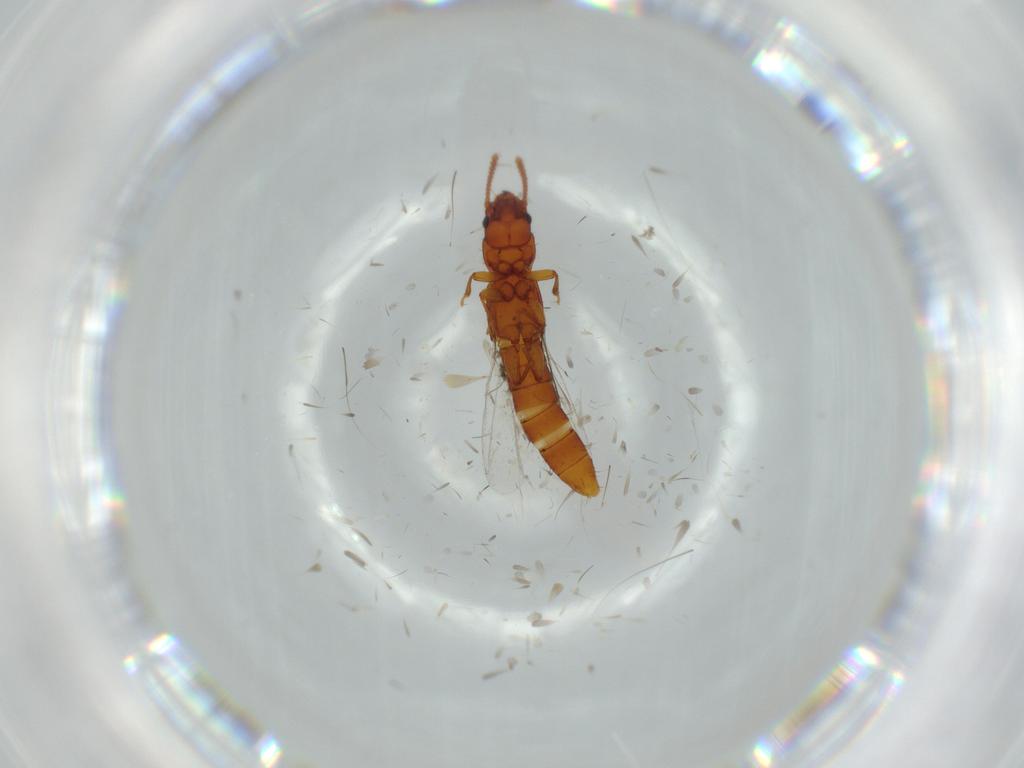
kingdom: Animalia
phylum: Arthropoda
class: Insecta
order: Coleoptera
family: Staphylinidae
